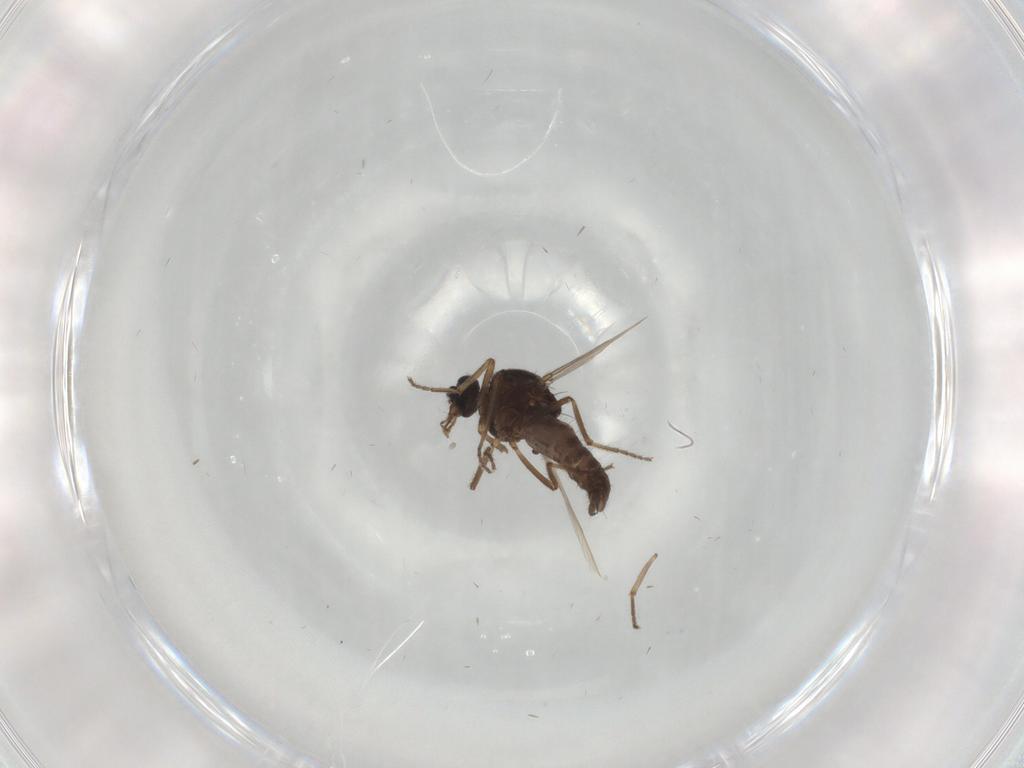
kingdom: Animalia
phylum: Arthropoda
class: Insecta
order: Diptera
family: Ceratopogonidae
